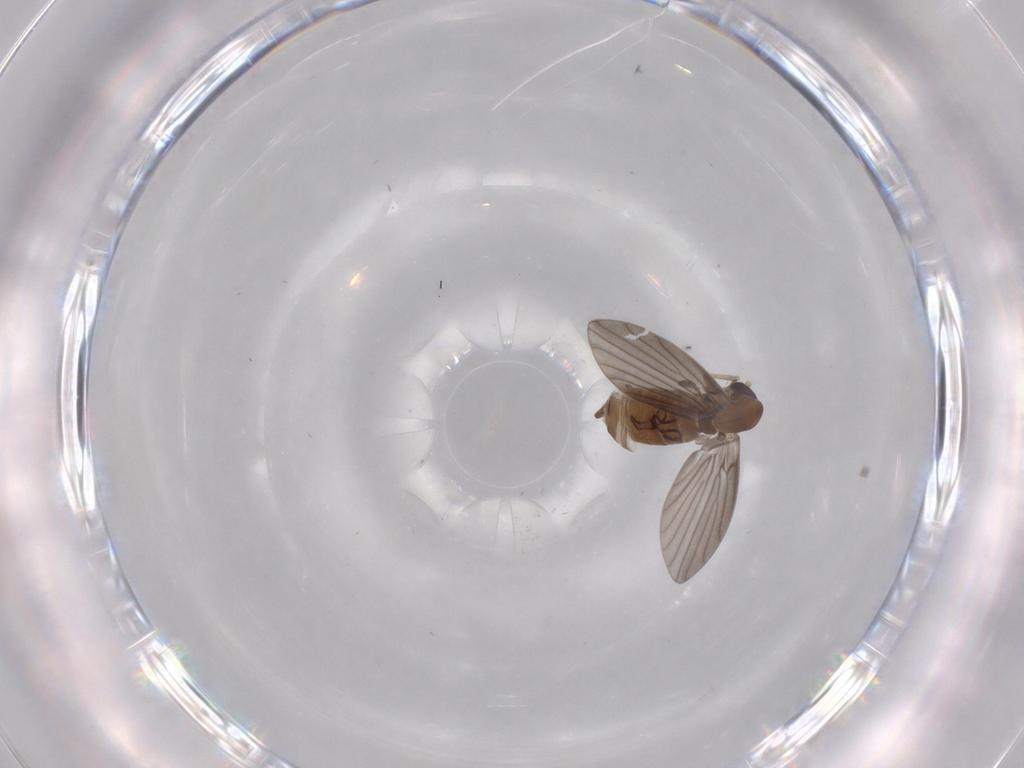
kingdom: Animalia
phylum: Arthropoda
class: Insecta
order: Diptera
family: Psychodidae
